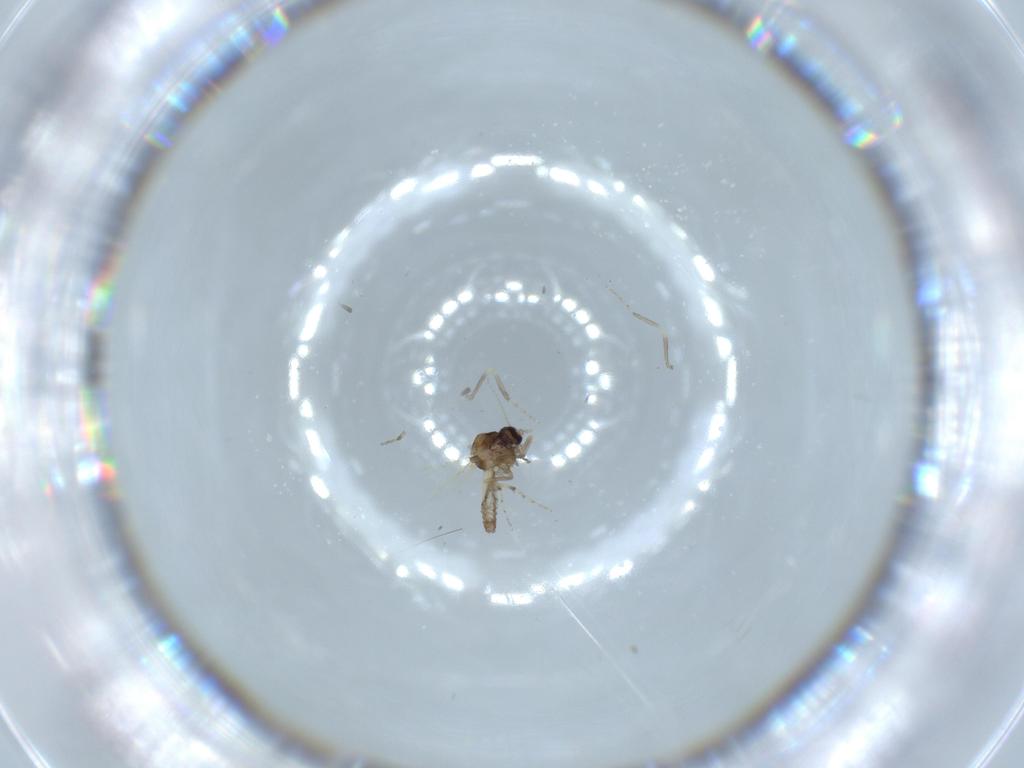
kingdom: Animalia
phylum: Arthropoda
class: Insecta
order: Diptera
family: Ceratopogonidae
